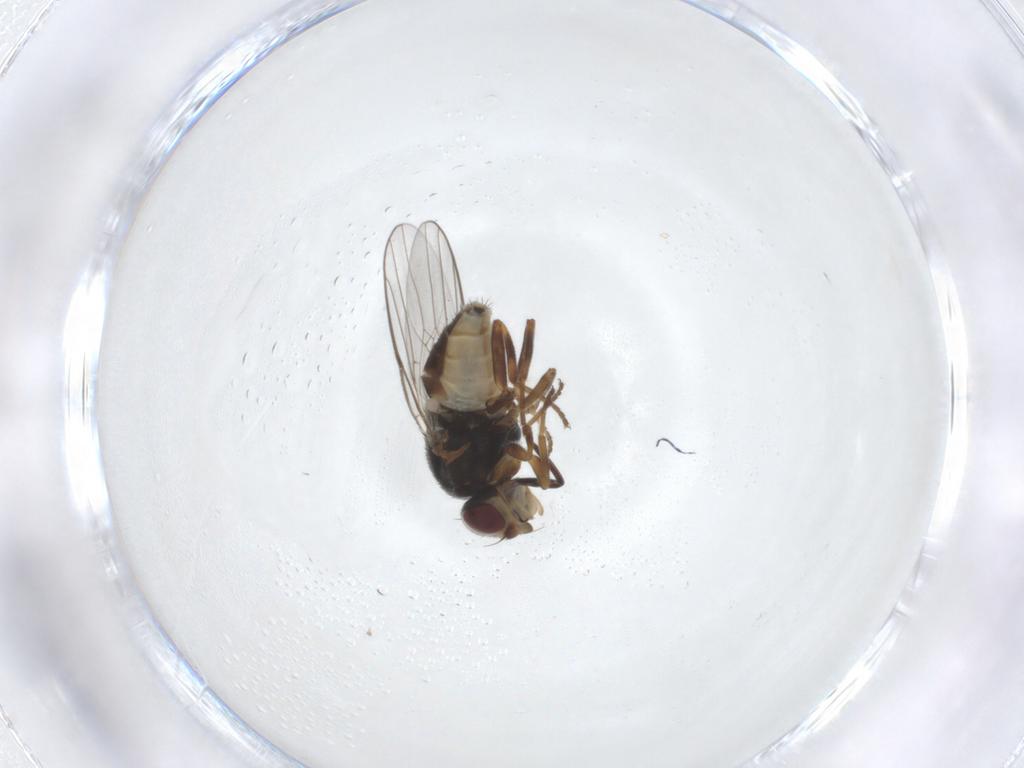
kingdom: Animalia
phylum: Arthropoda
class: Insecta
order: Diptera
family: Chloropidae
